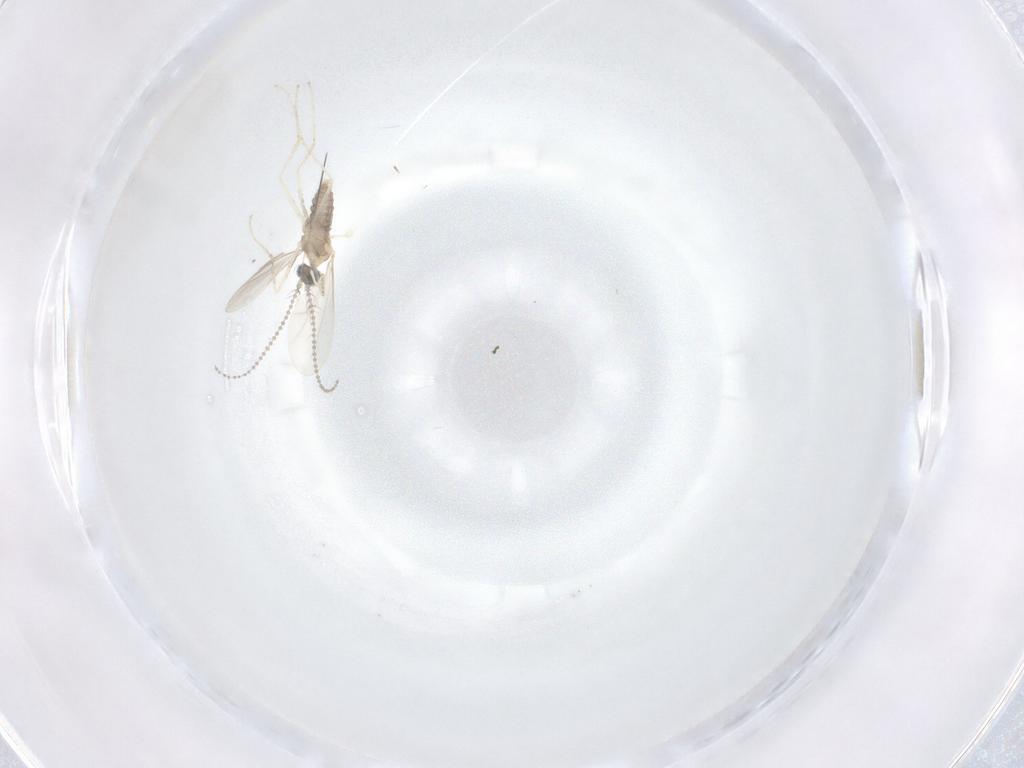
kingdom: Animalia
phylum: Arthropoda
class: Insecta
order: Diptera
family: Cecidomyiidae
